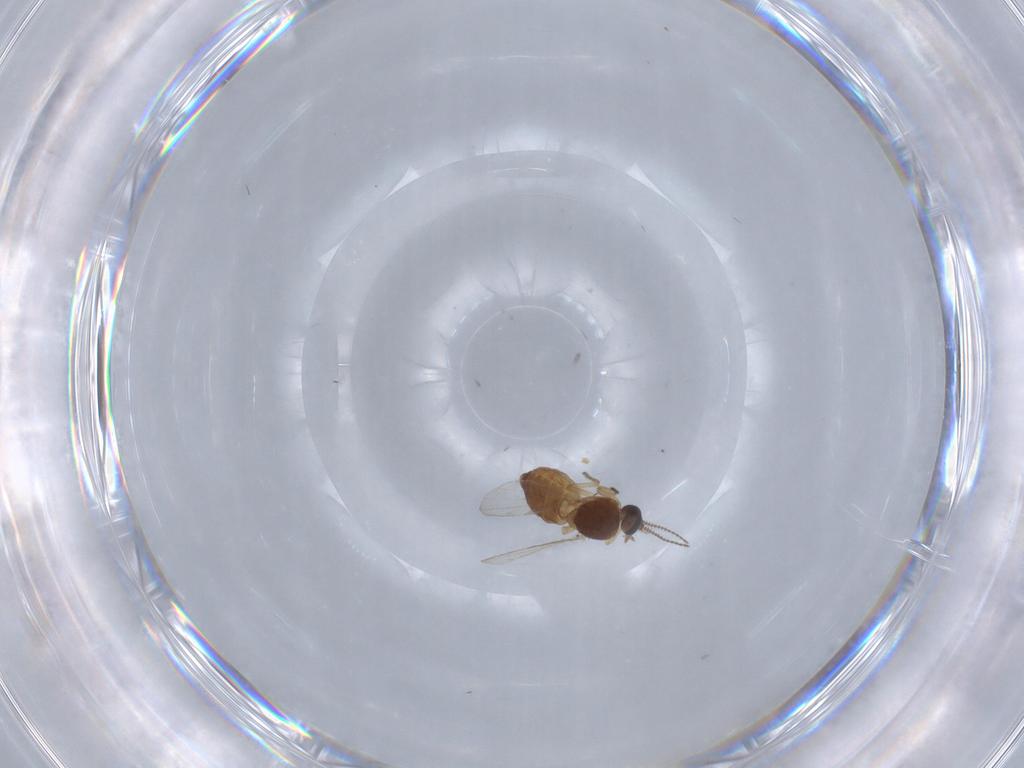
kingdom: Animalia
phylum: Arthropoda
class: Insecta
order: Diptera
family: Ceratopogonidae
